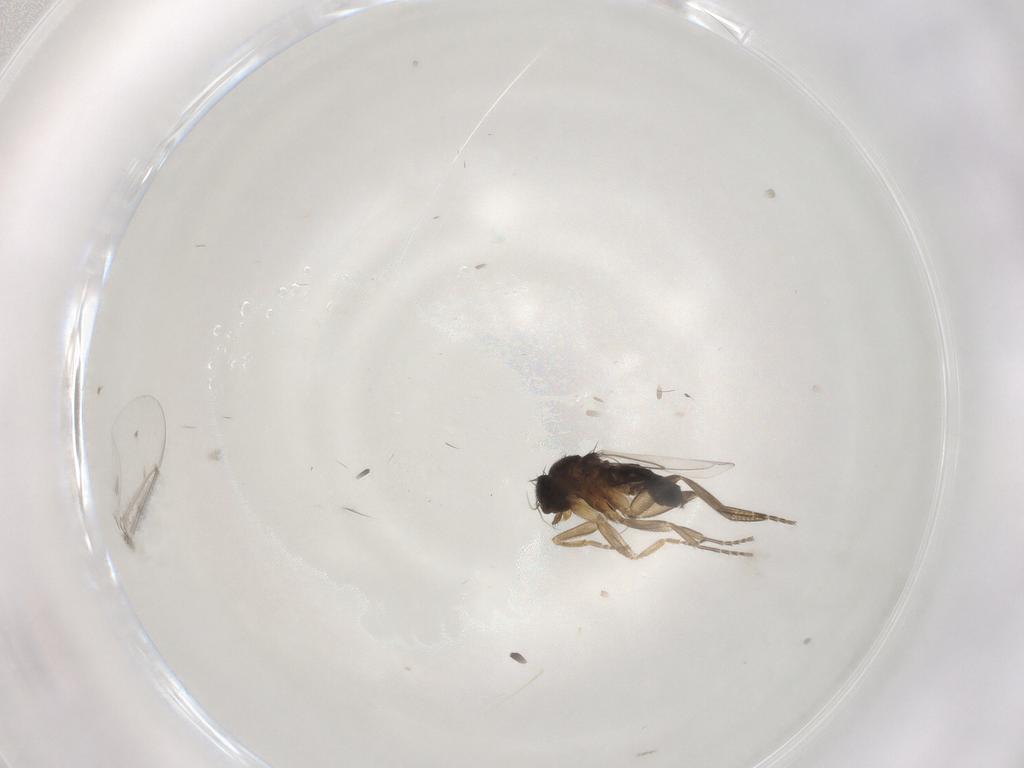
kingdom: Animalia
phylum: Arthropoda
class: Insecta
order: Diptera
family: Phoridae
